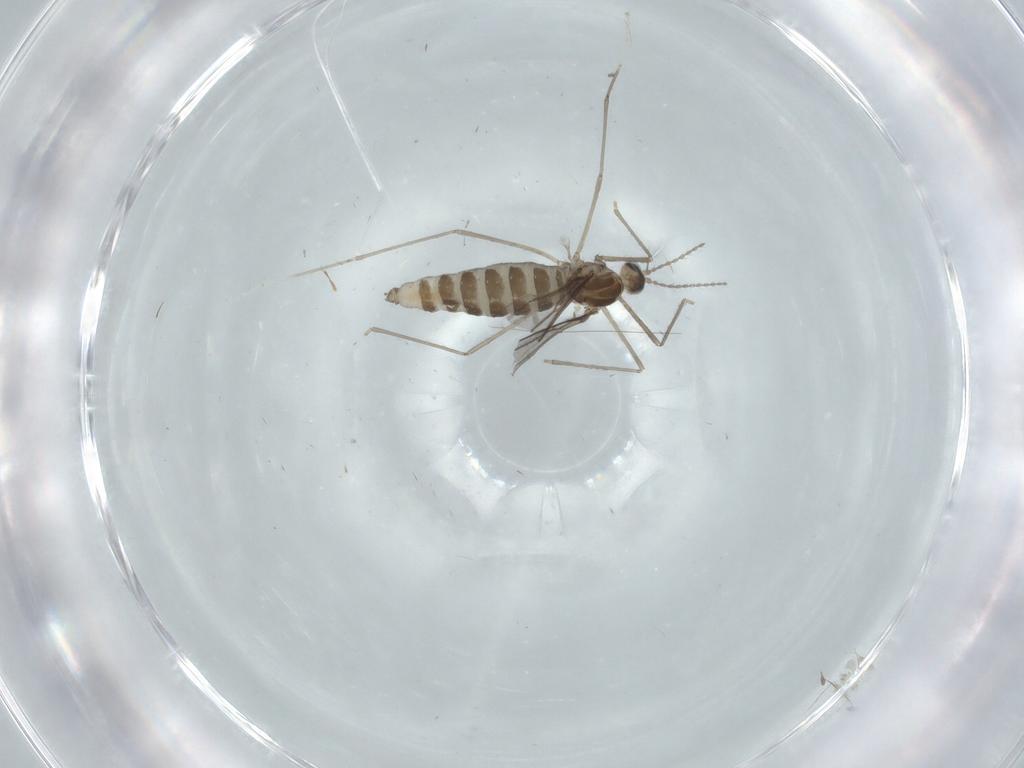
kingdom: Animalia
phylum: Arthropoda
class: Insecta
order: Diptera
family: Cecidomyiidae
